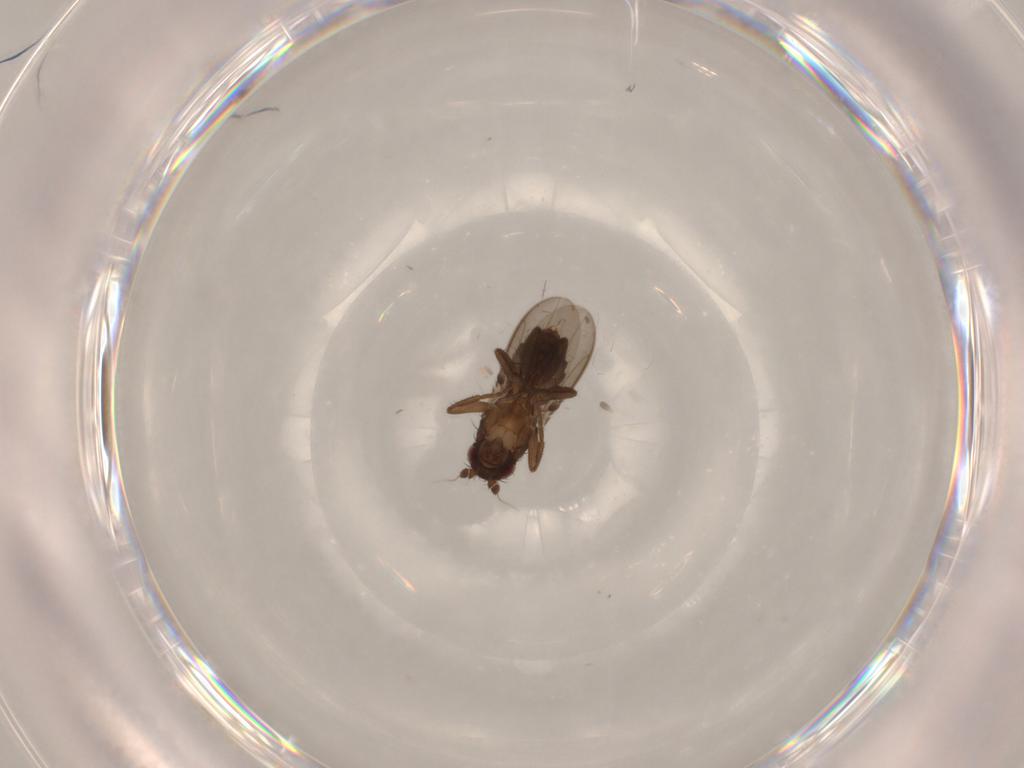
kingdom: Animalia
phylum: Arthropoda
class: Insecta
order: Diptera
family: Sphaeroceridae
